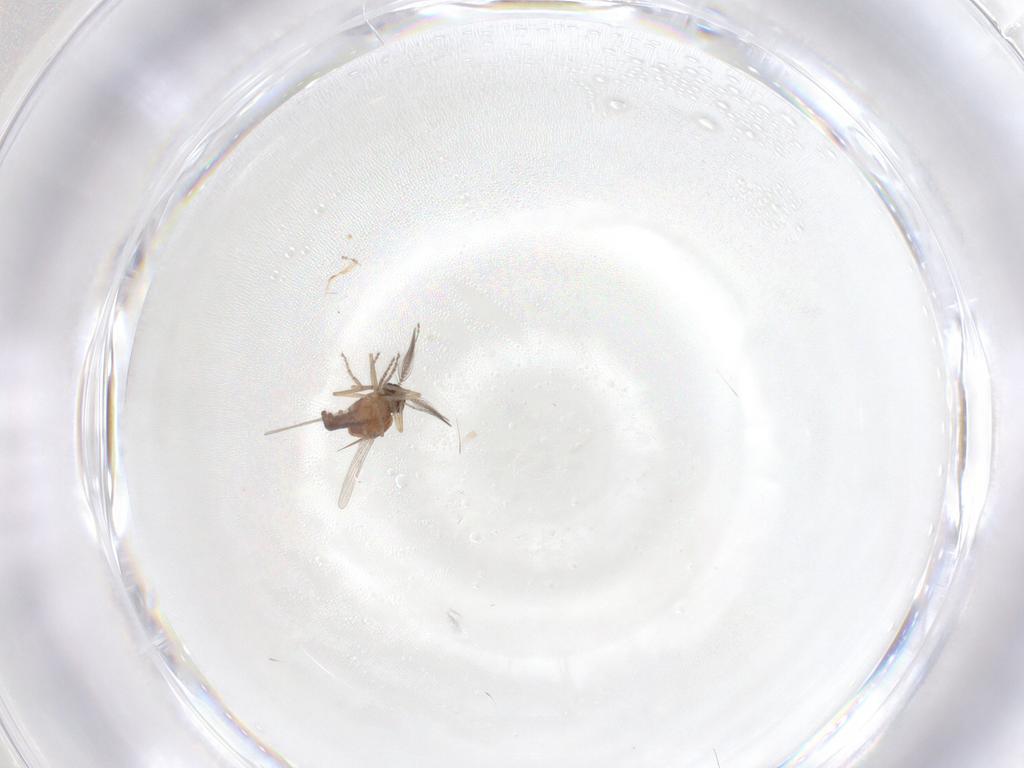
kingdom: Animalia
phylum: Arthropoda
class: Insecta
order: Diptera
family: Ceratopogonidae
